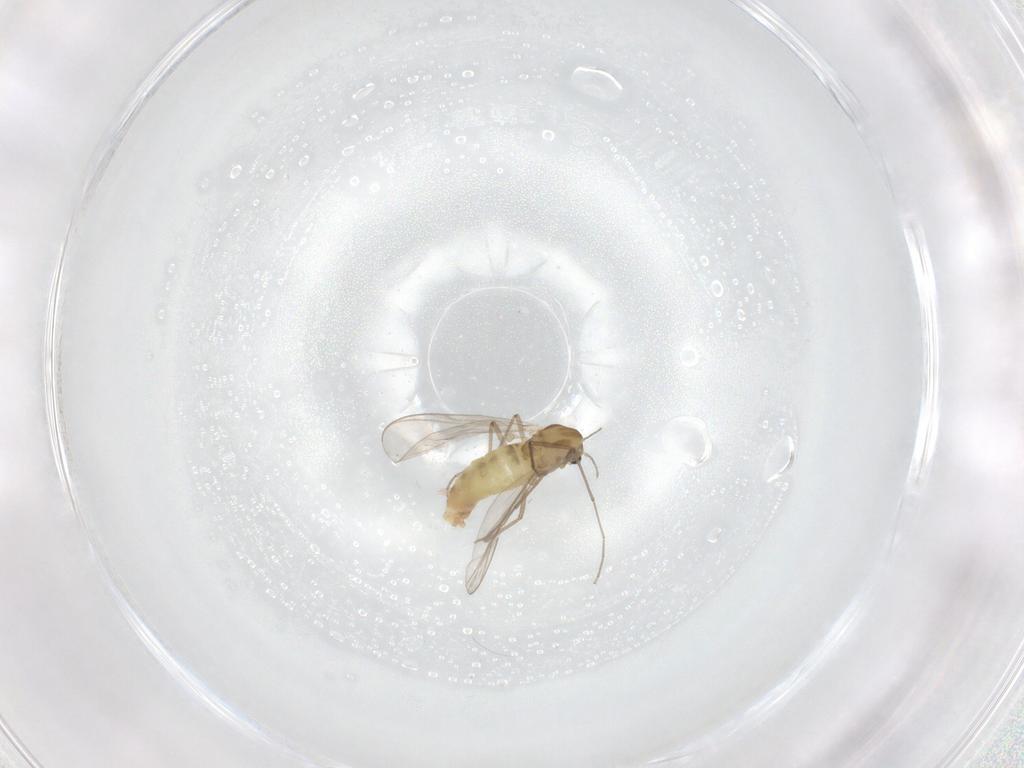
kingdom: Animalia
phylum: Arthropoda
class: Insecta
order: Diptera
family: Chironomidae
